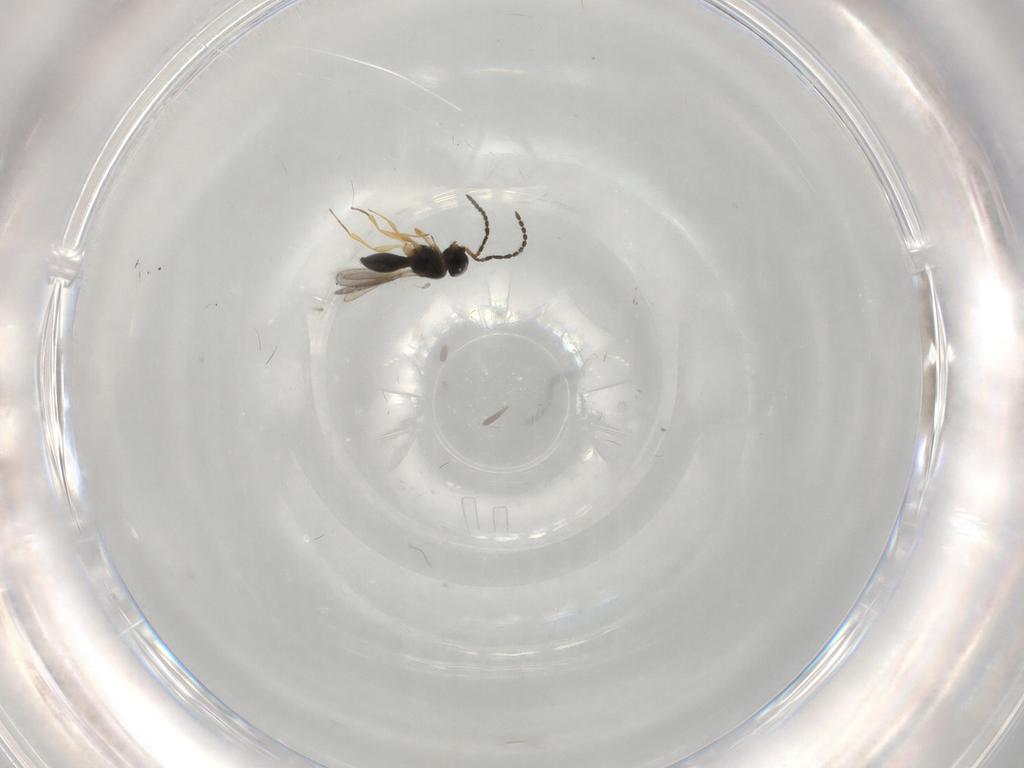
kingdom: Animalia
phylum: Arthropoda
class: Insecta
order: Hymenoptera
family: Scelionidae
